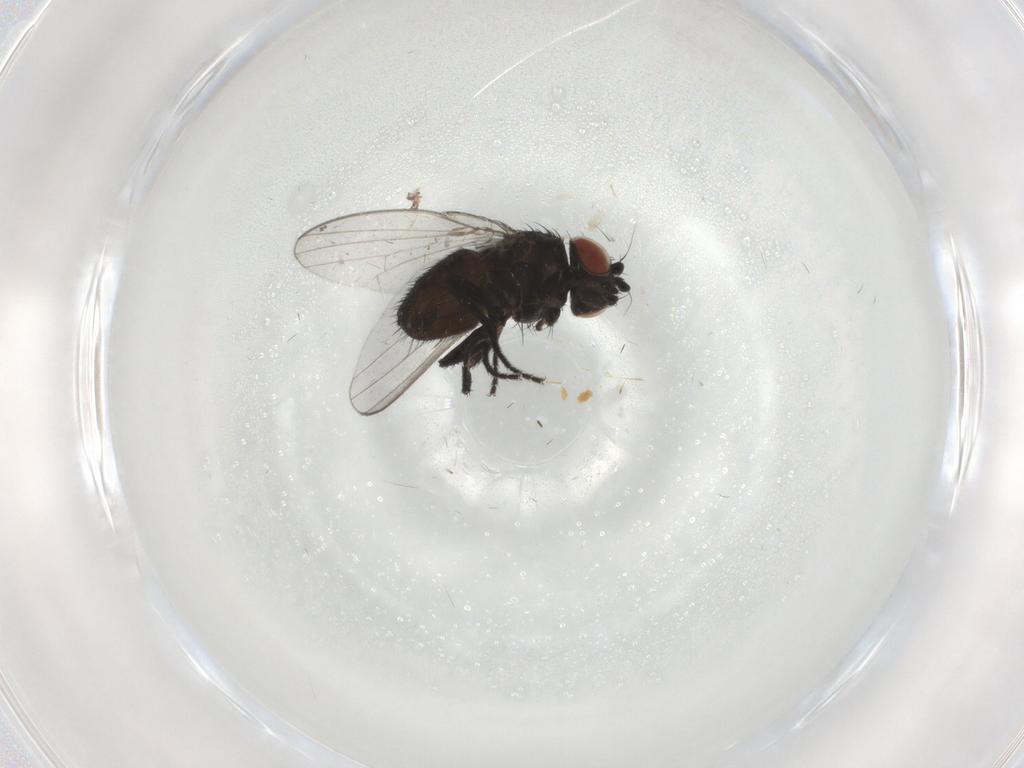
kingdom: Animalia
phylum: Arthropoda
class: Insecta
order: Diptera
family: Milichiidae
